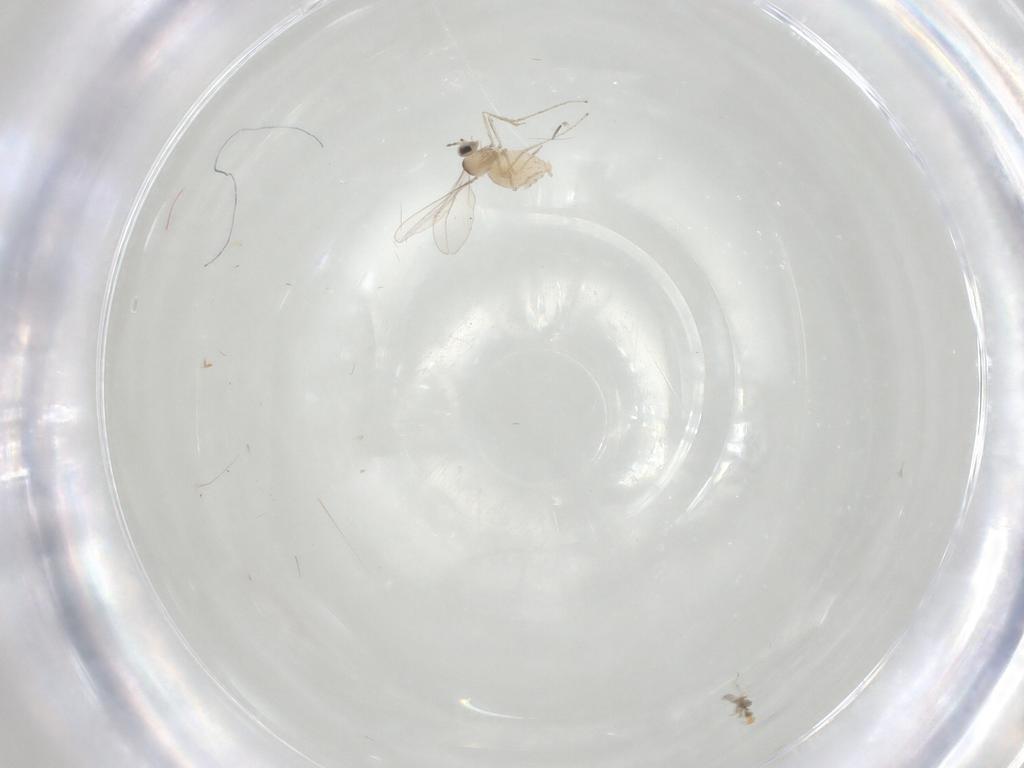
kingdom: Animalia
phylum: Arthropoda
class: Insecta
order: Diptera
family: Cecidomyiidae
